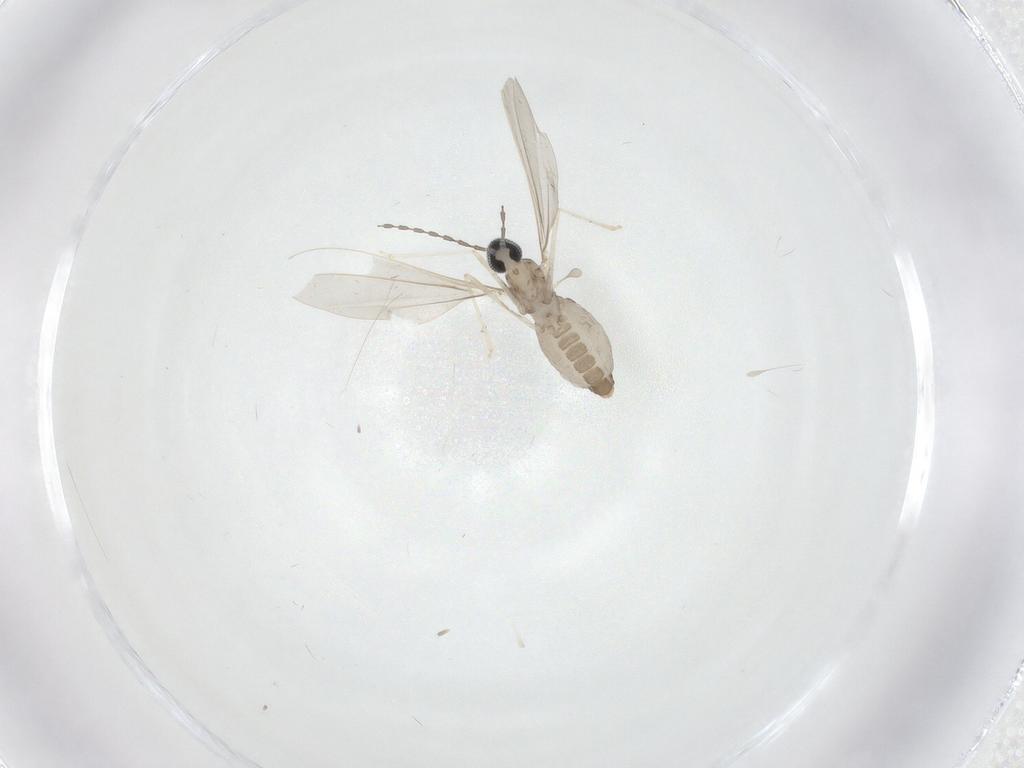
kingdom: Animalia
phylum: Arthropoda
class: Insecta
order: Diptera
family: Cecidomyiidae
